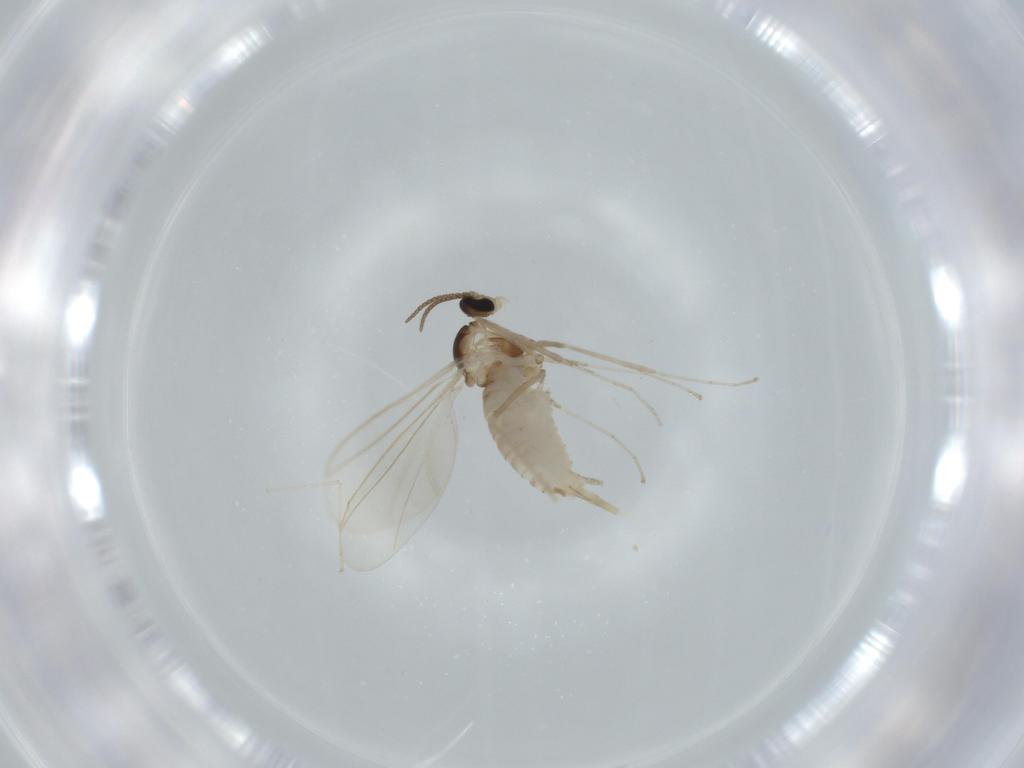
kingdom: Animalia
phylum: Arthropoda
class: Insecta
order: Diptera
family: Cecidomyiidae
